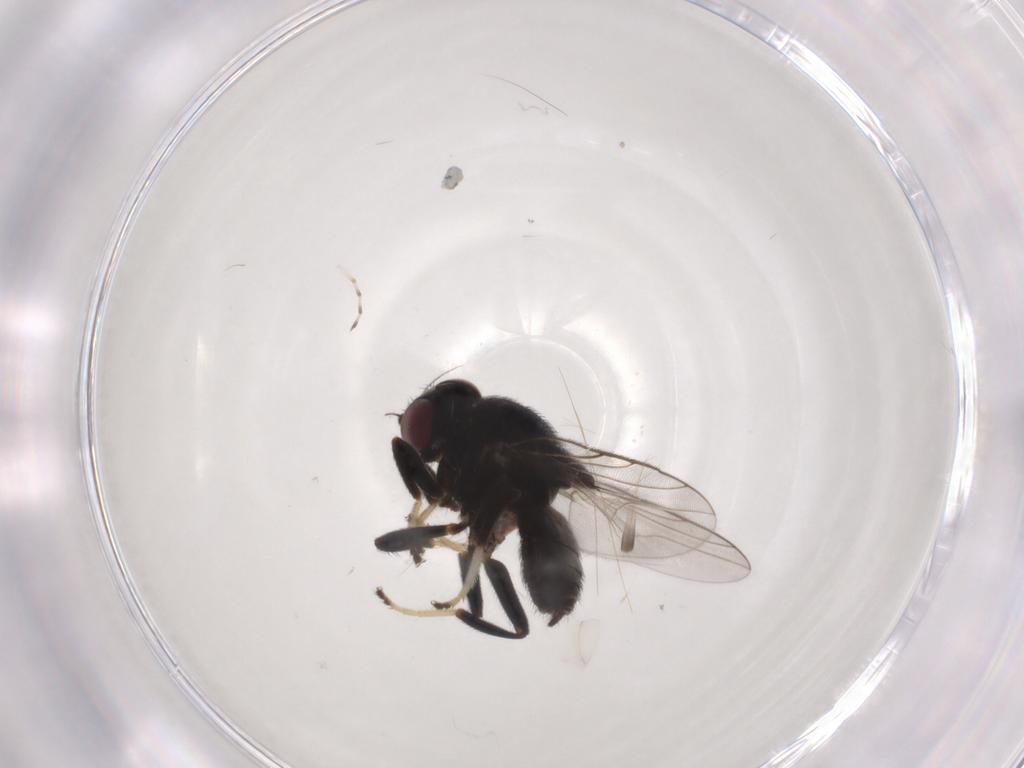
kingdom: Animalia
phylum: Arthropoda
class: Insecta
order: Diptera
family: Chloropidae
